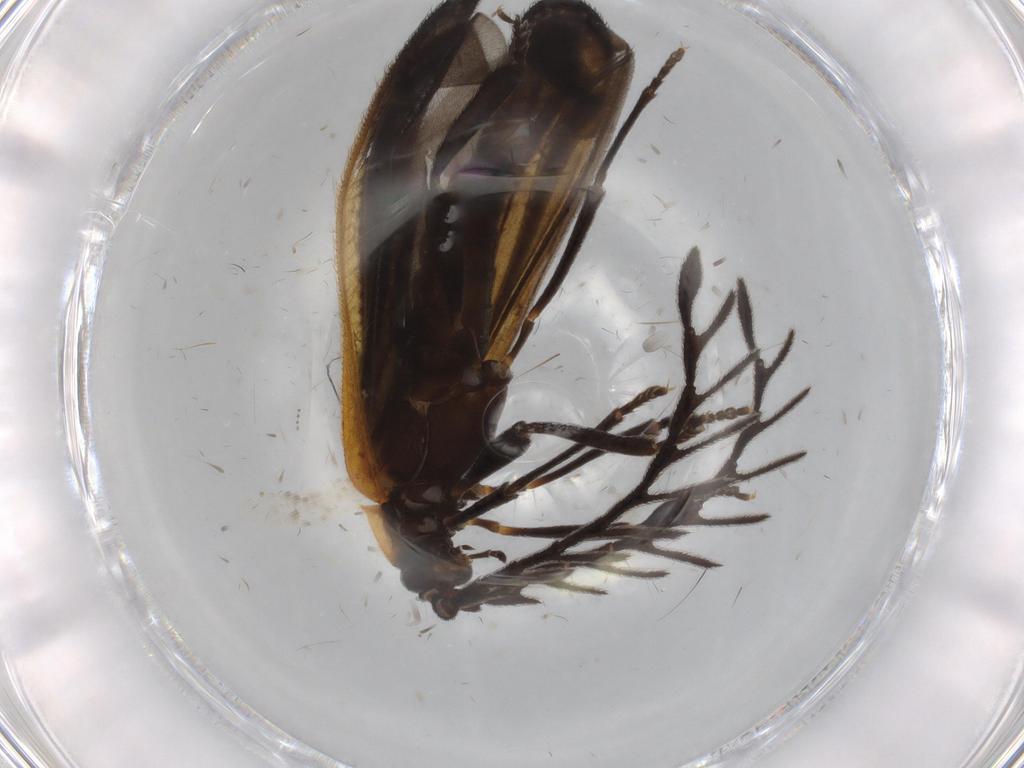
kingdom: Animalia
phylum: Arthropoda
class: Insecta
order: Coleoptera
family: Lycidae
